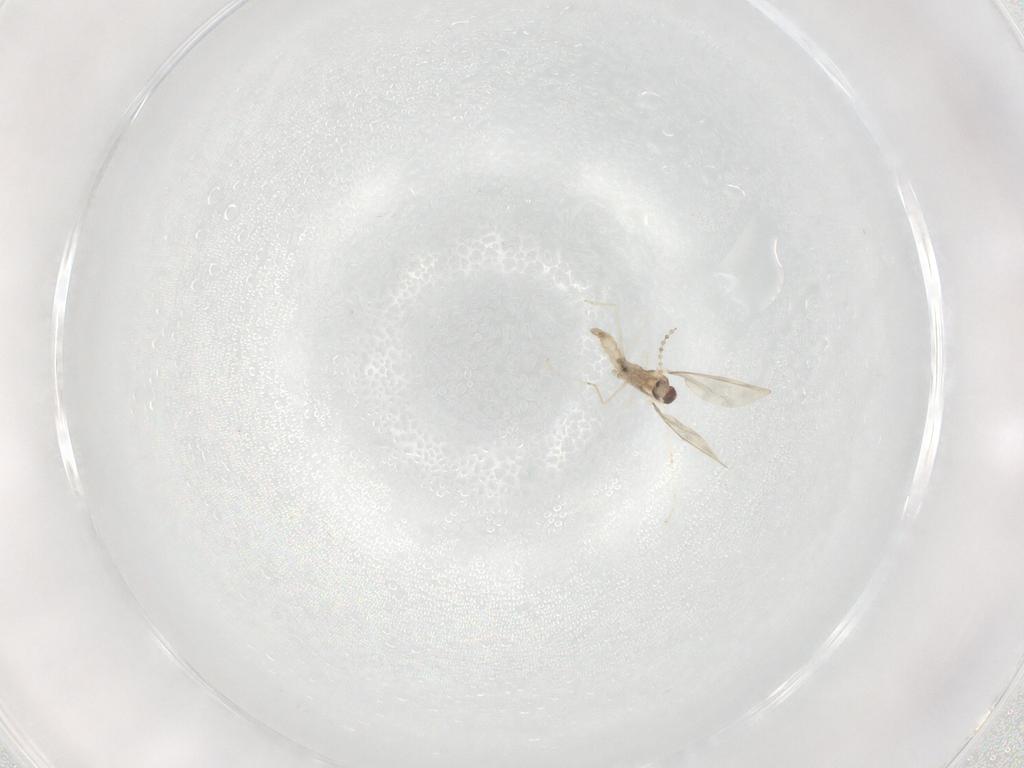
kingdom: Animalia
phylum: Arthropoda
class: Insecta
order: Diptera
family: Cecidomyiidae
